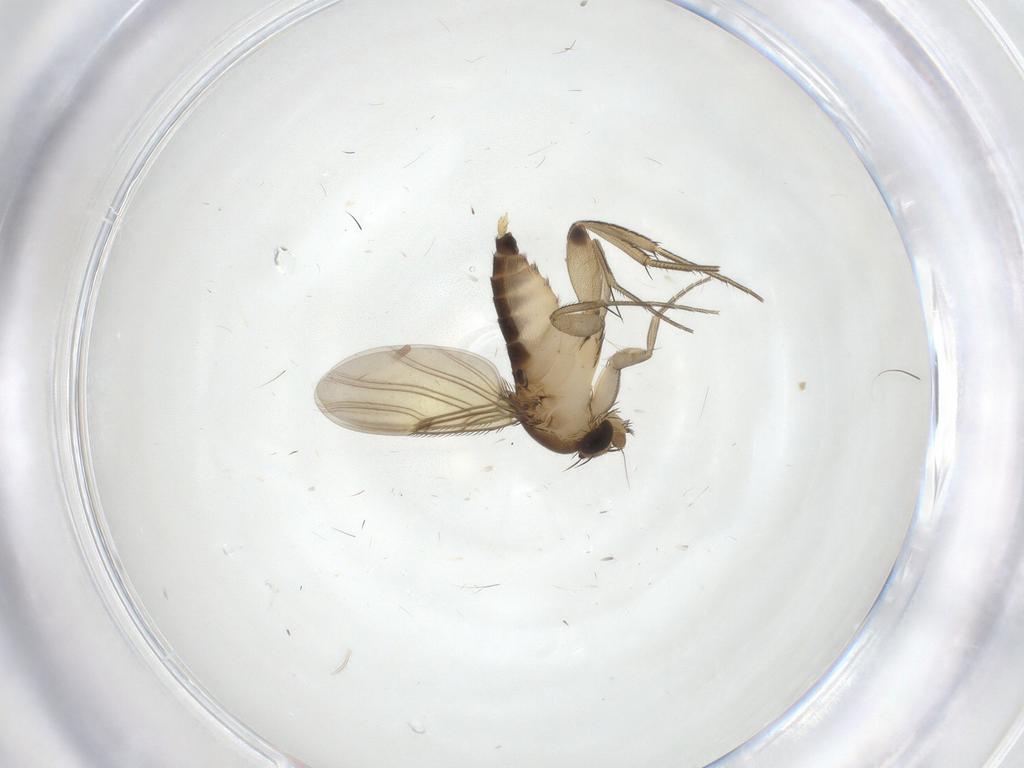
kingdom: Animalia
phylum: Arthropoda
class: Insecta
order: Diptera
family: Phoridae
